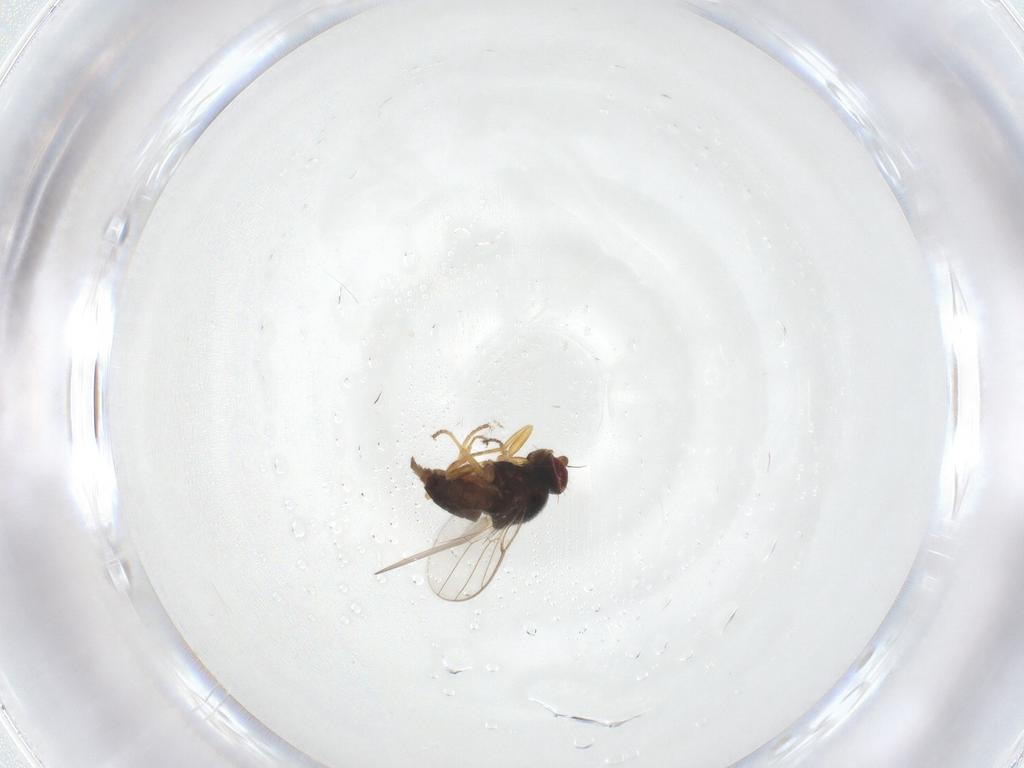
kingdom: Animalia
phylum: Arthropoda
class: Insecta
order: Diptera
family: Chloropidae
